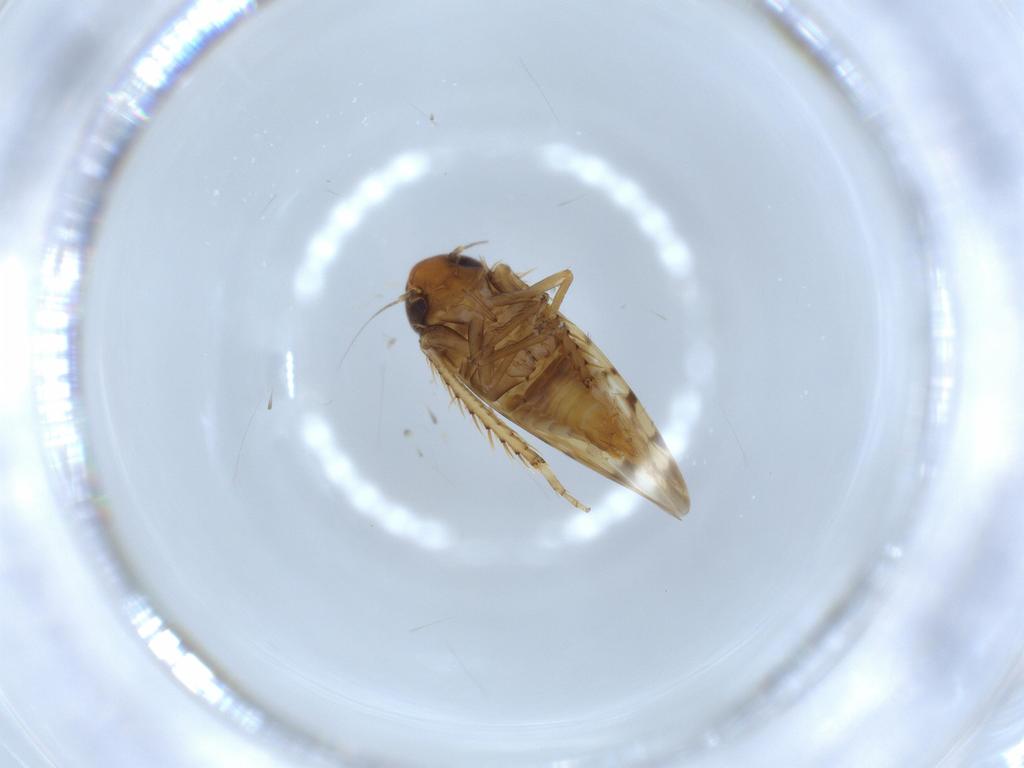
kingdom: Animalia
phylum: Arthropoda
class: Insecta
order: Hemiptera
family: Cicadellidae
